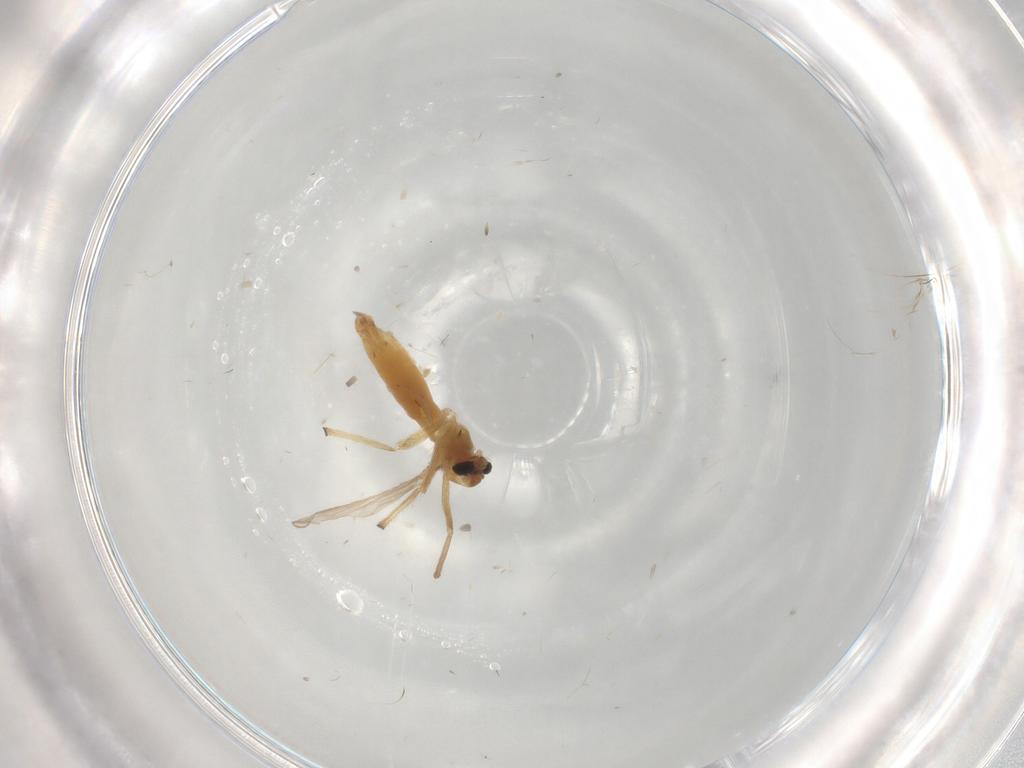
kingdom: Animalia
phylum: Arthropoda
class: Insecta
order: Diptera
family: Chironomidae
